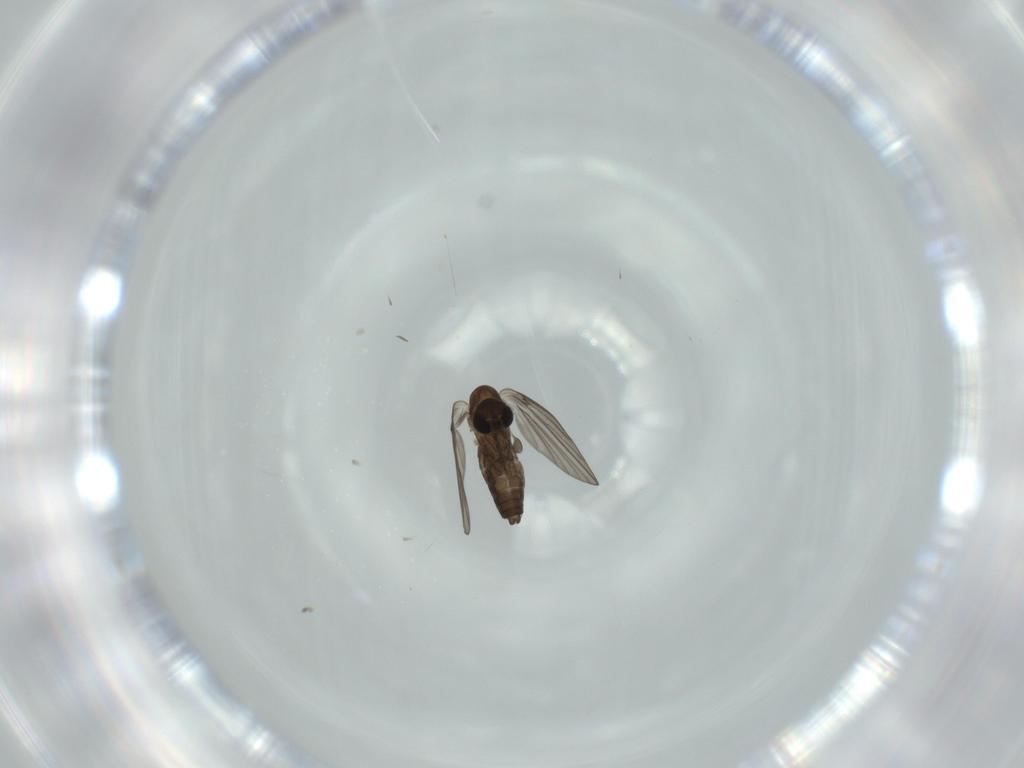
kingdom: Animalia
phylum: Arthropoda
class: Insecta
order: Diptera
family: Psychodidae
